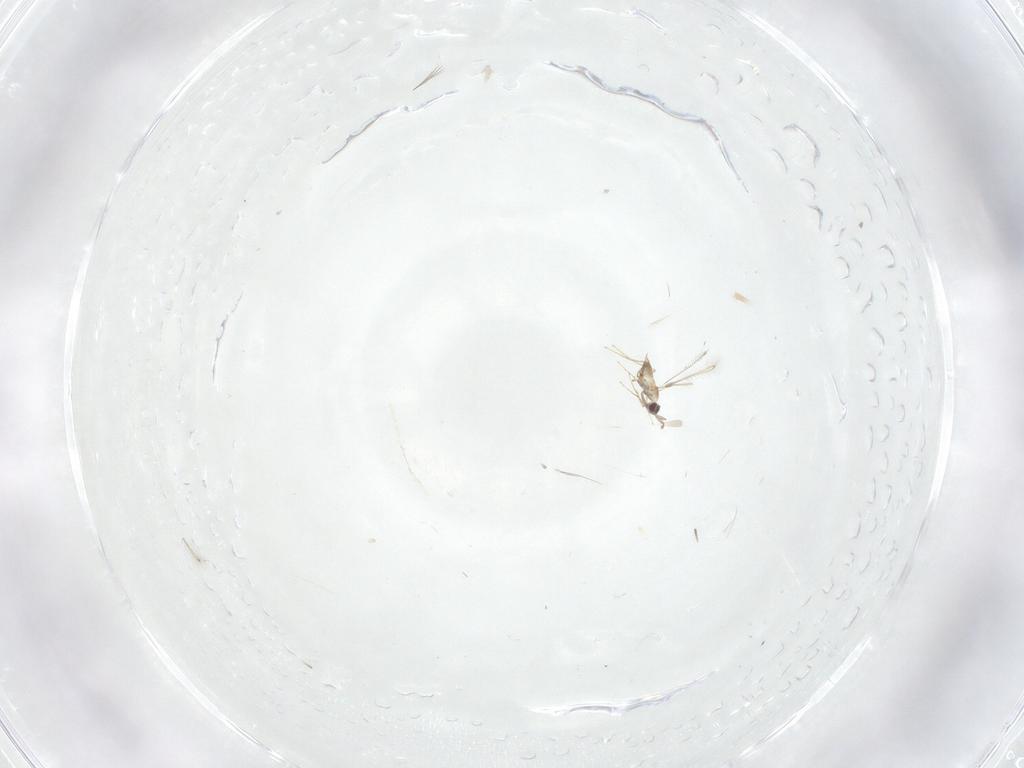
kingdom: Animalia
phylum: Arthropoda
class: Insecta
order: Hymenoptera
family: Mymaridae
